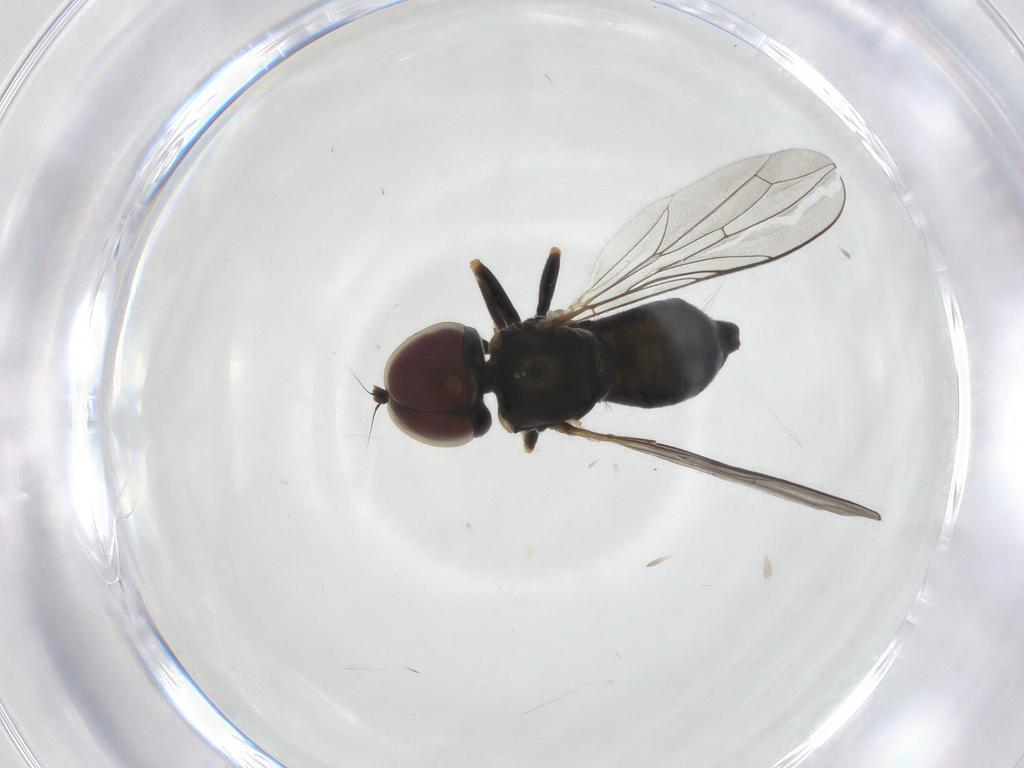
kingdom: Animalia
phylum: Arthropoda
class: Insecta
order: Diptera
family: Pipunculidae
